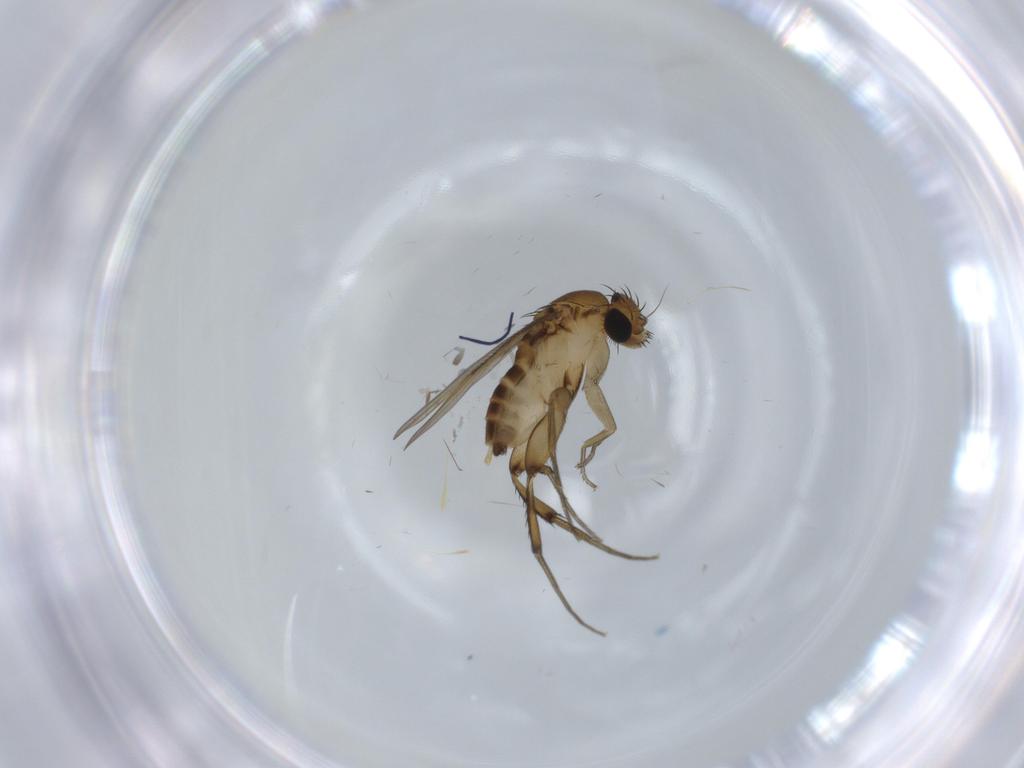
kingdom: Animalia
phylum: Arthropoda
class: Insecta
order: Diptera
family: Phoridae
